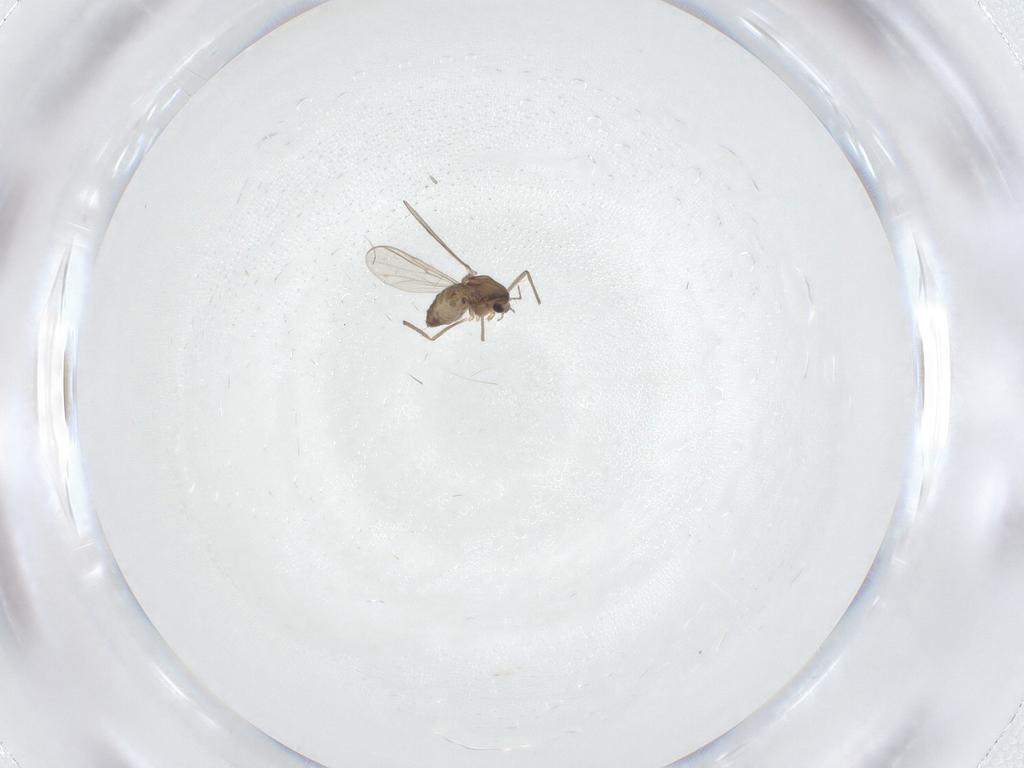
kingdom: Animalia
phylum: Arthropoda
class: Insecta
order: Diptera
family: Chironomidae
